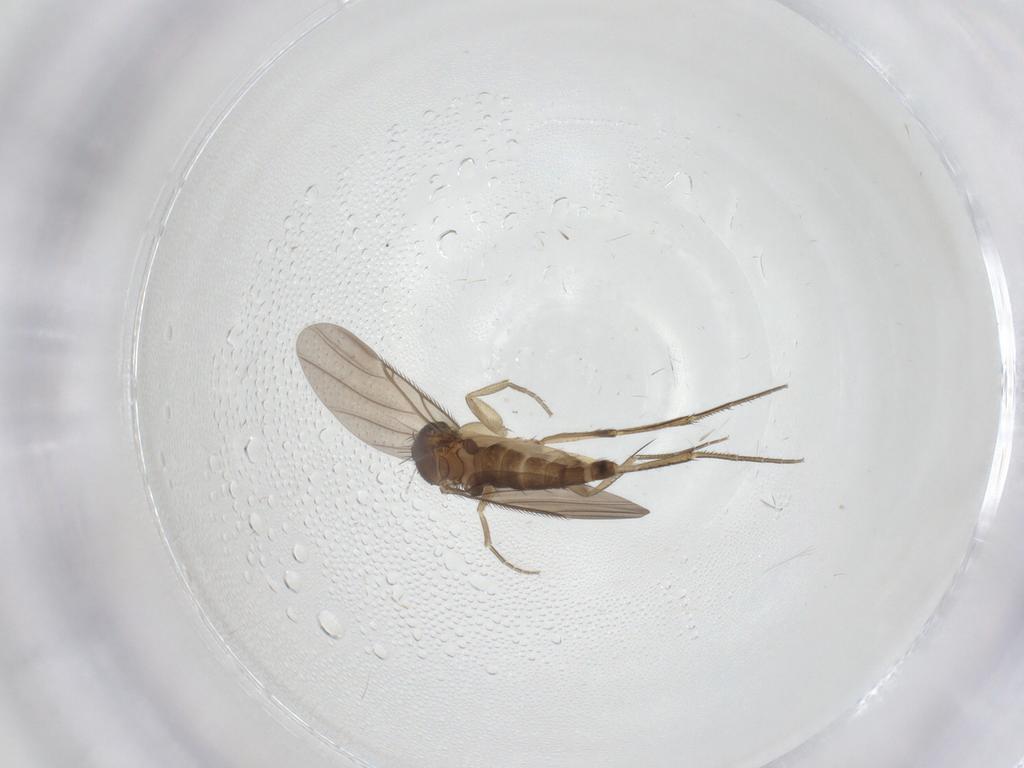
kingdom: Animalia
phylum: Arthropoda
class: Insecta
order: Diptera
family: Phoridae
